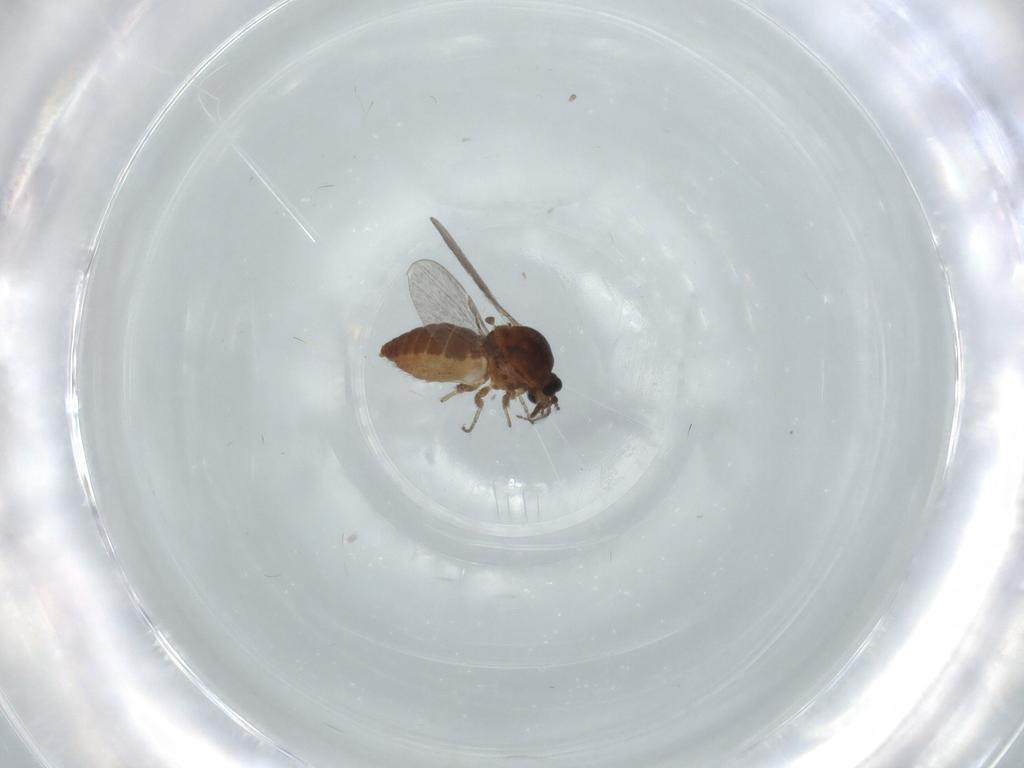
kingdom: Animalia
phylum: Arthropoda
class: Insecta
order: Diptera
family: Ceratopogonidae
